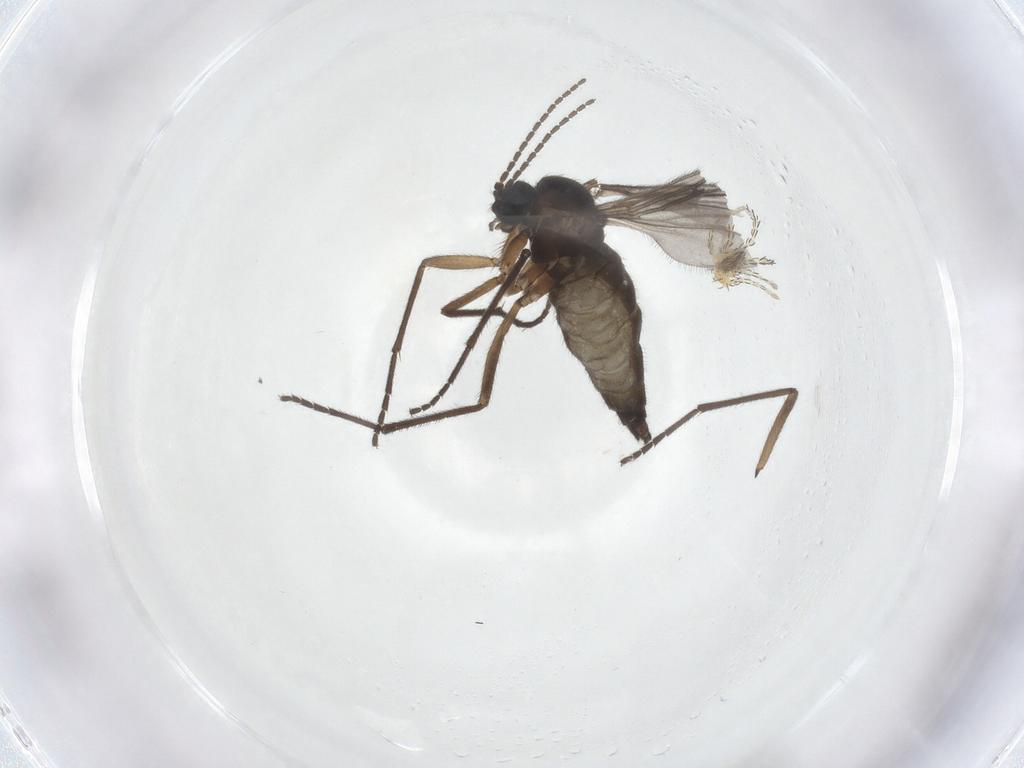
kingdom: Animalia
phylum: Arthropoda
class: Insecta
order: Diptera
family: Sciaridae
